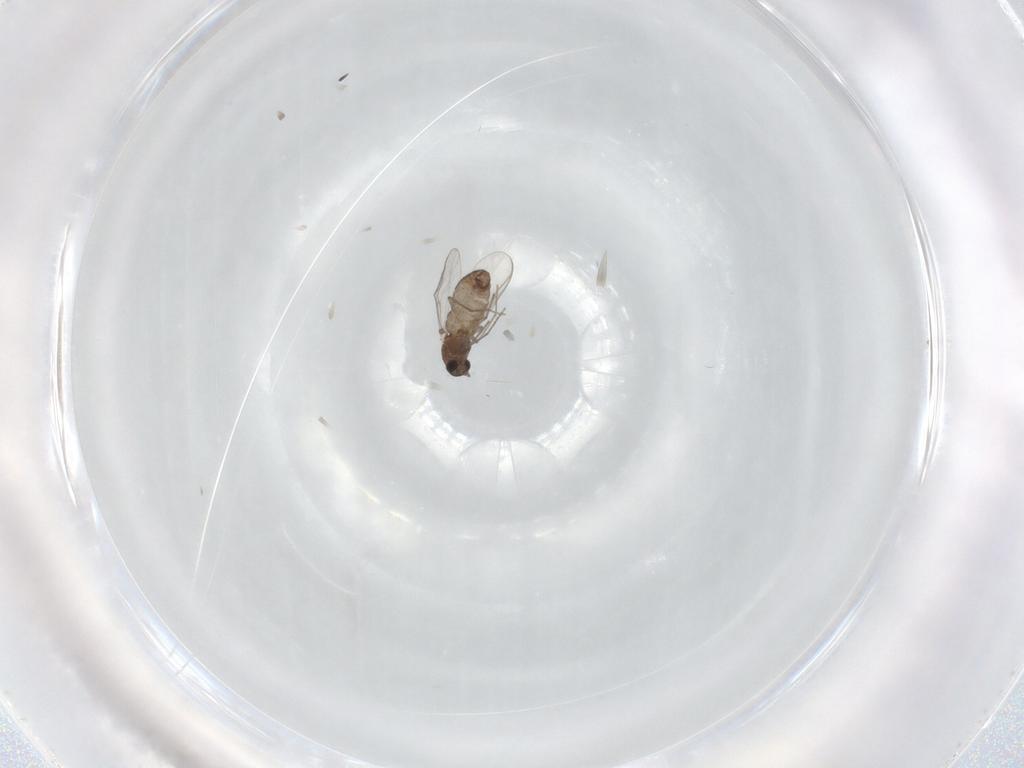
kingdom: Animalia
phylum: Arthropoda
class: Insecta
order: Diptera
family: Chironomidae
